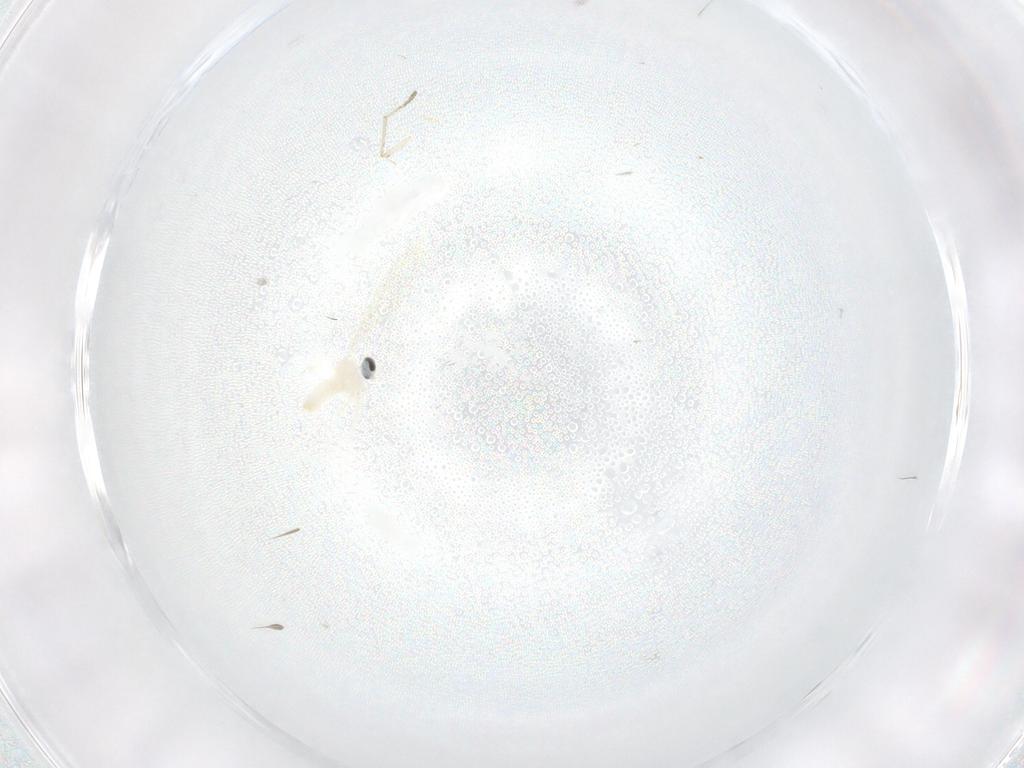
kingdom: Animalia
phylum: Arthropoda
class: Insecta
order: Diptera
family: Cecidomyiidae
